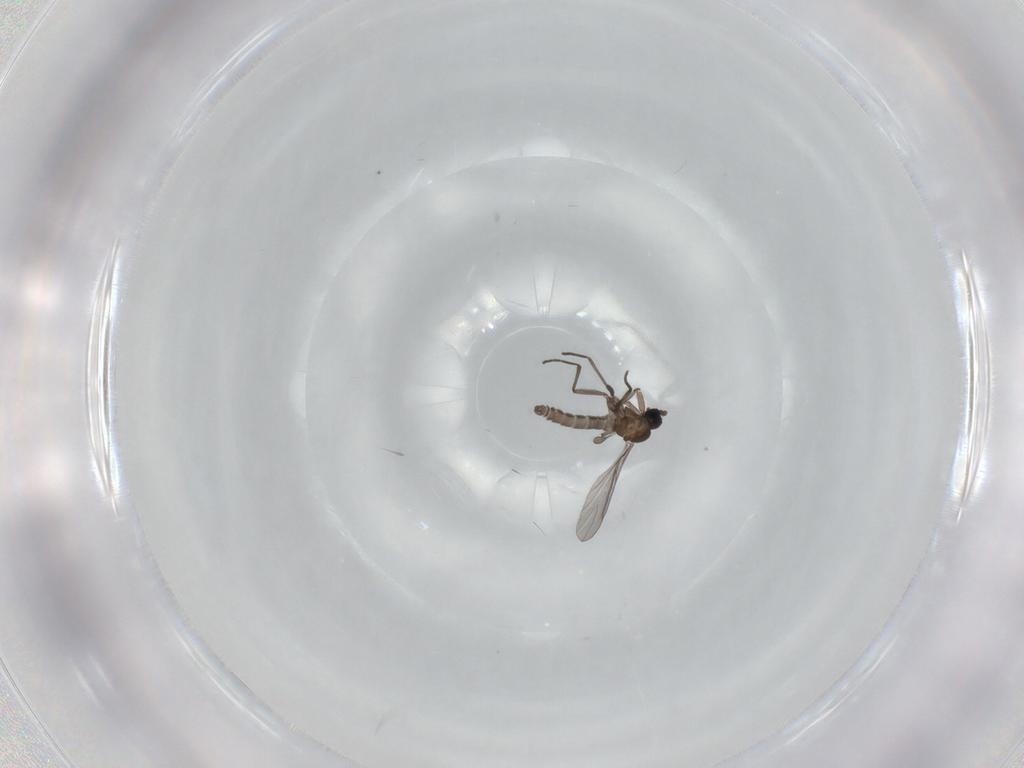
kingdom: Animalia
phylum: Arthropoda
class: Insecta
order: Diptera
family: Sciaridae
